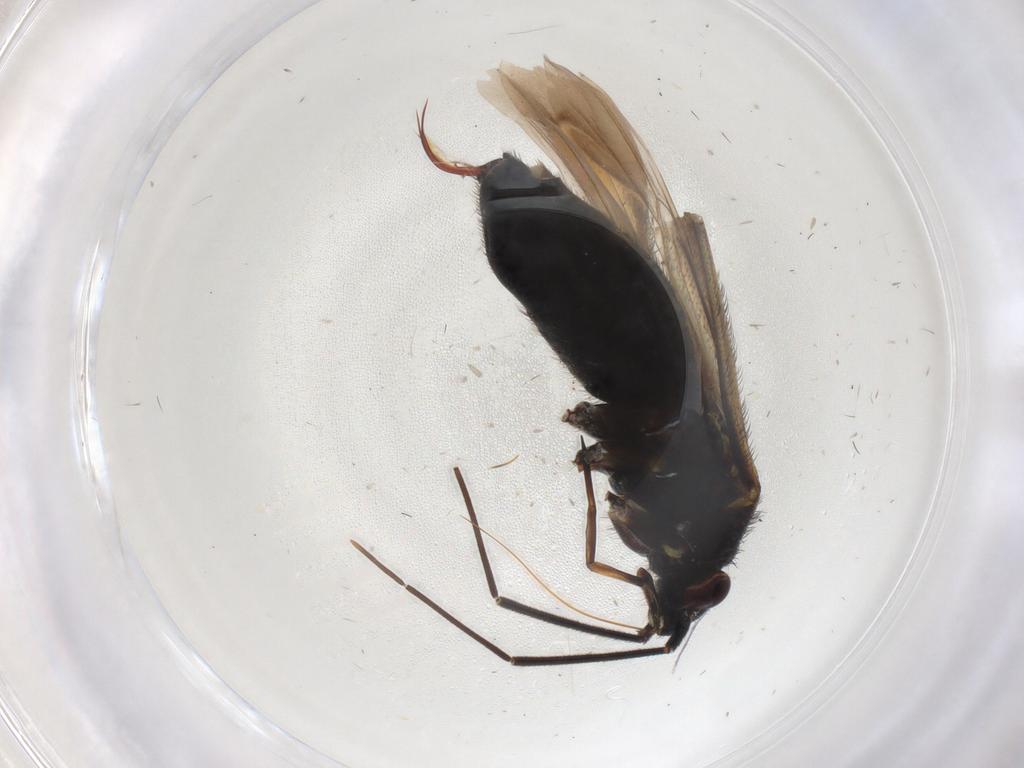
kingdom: Animalia
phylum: Arthropoda
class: Insecta
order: Hemiptera
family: Miridae
